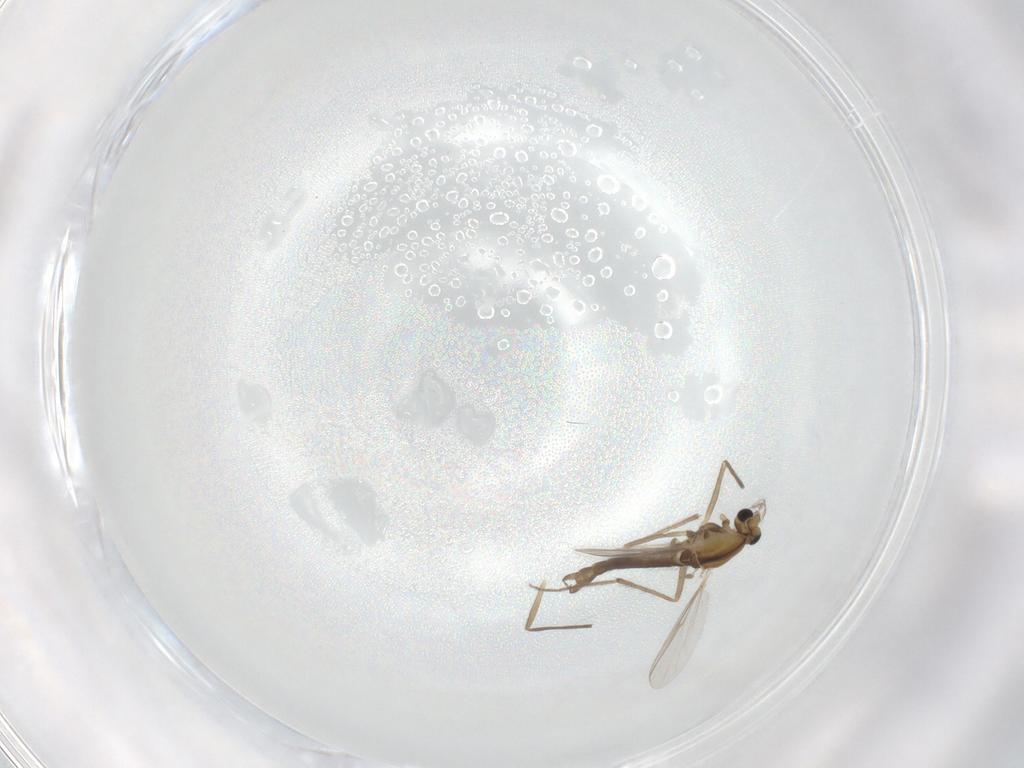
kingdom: Animalia
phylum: Arthropoda
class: Insecta
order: Diptera
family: Chironomidae
